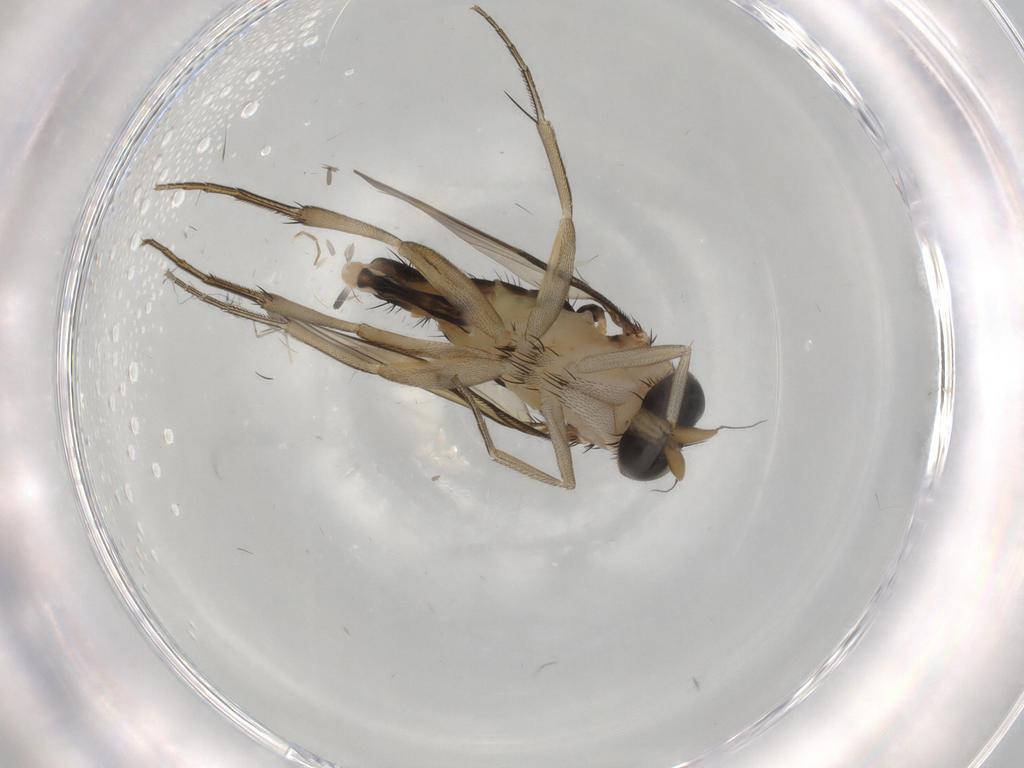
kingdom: Animalia
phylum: Arthropoda
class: Insecta
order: Diptera
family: Phoridae
